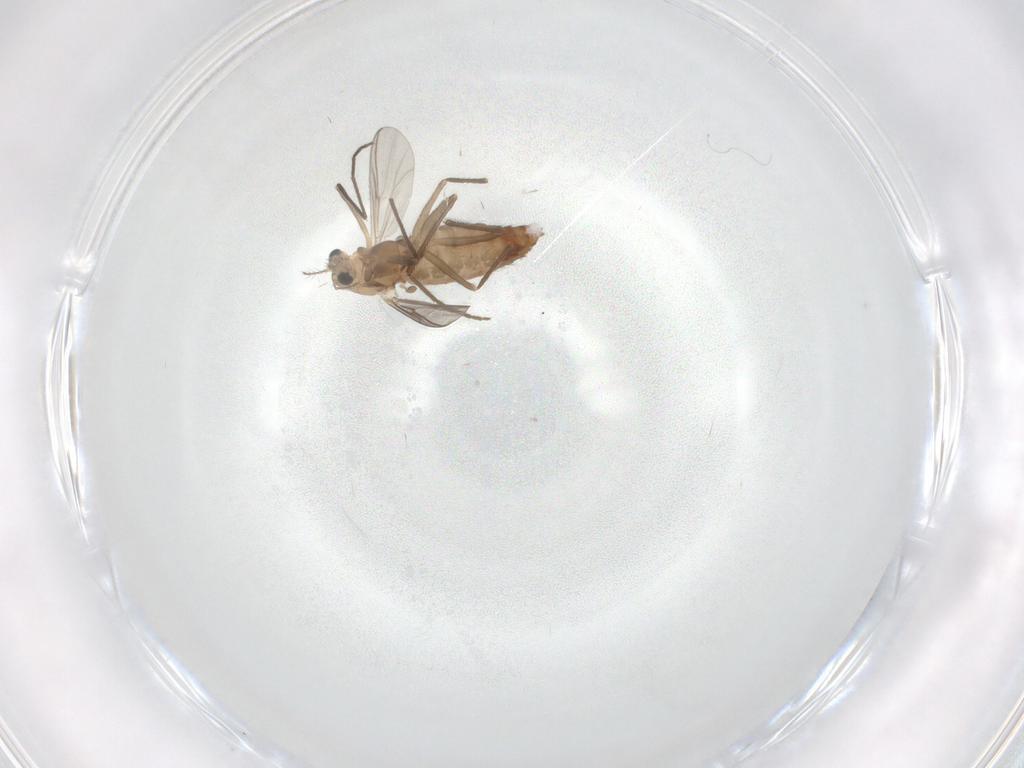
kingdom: Animalia
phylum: Arthropoda
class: Insecta
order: Diptera
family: Chironomidae
